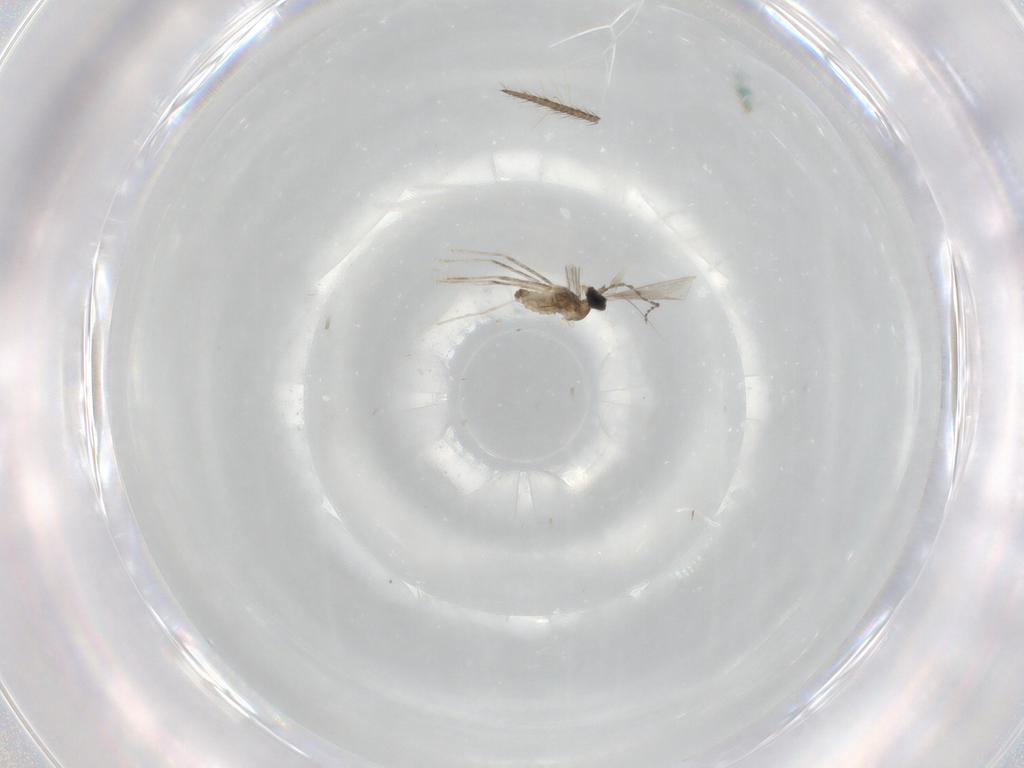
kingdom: Animalia
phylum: Arthropoda
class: Insecta
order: Diptera
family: Cecidomyiidae
